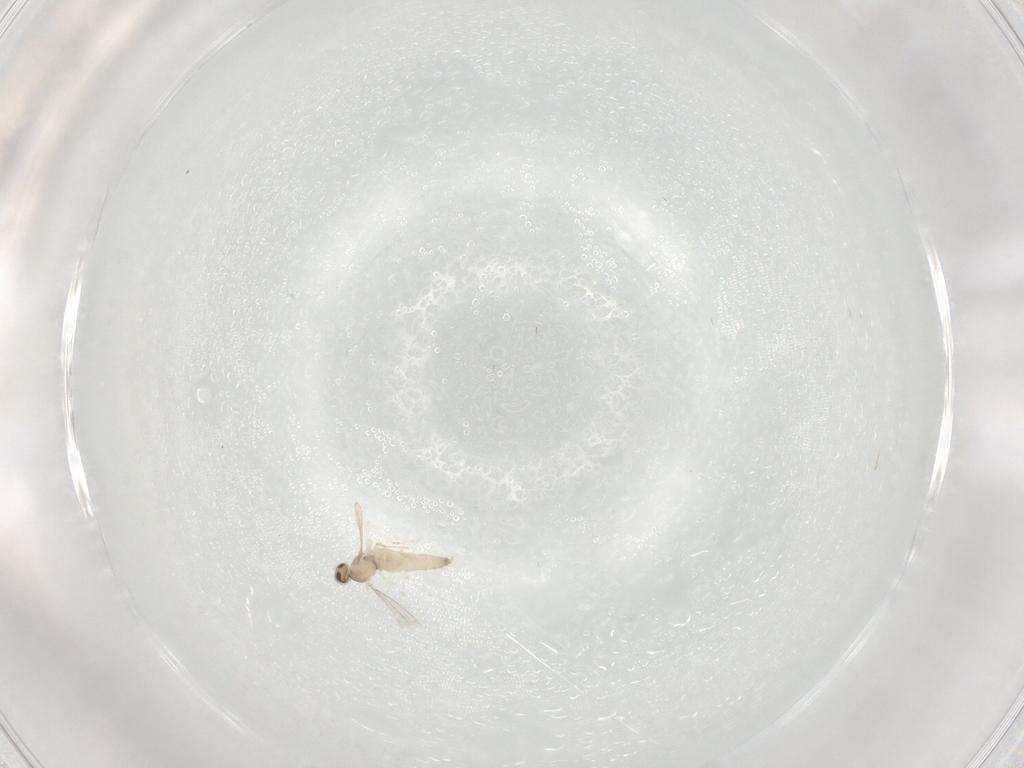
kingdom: Animalia
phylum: Arthropoda
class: Insecta
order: Diptera
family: Cecidomyiidae
